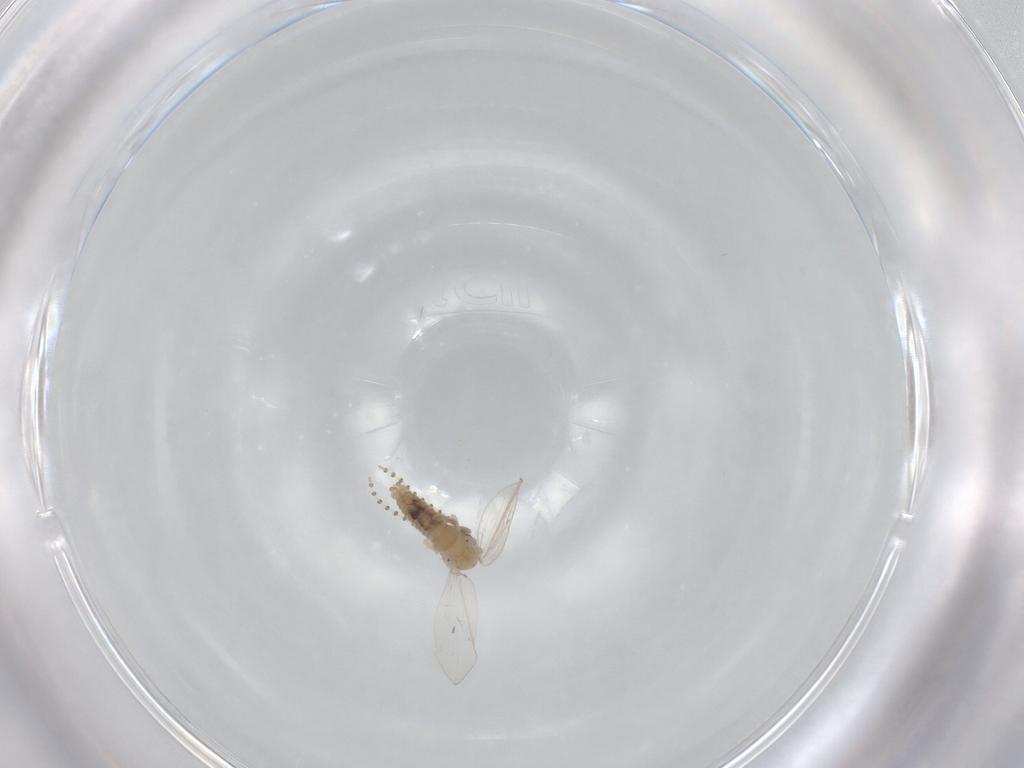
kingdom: Animalia
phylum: Arthropoda
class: Insecta
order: Diptera
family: Psychodidae
